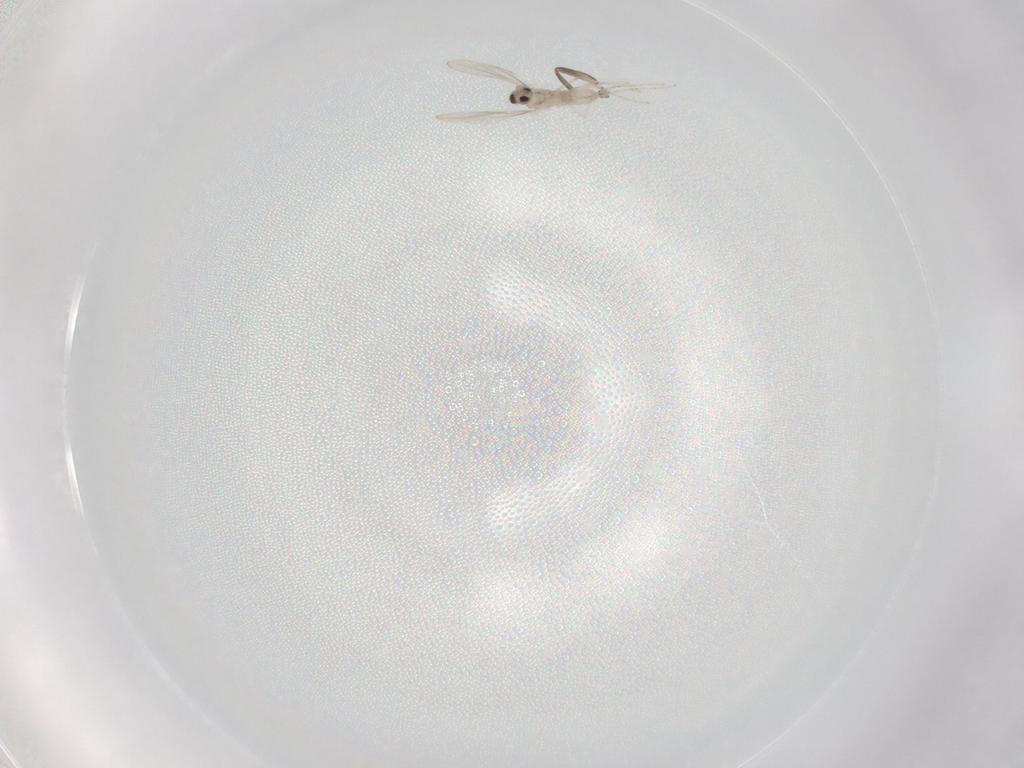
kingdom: Animalia
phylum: Arthropoda
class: Insecta
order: Diptera
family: Phoridae
